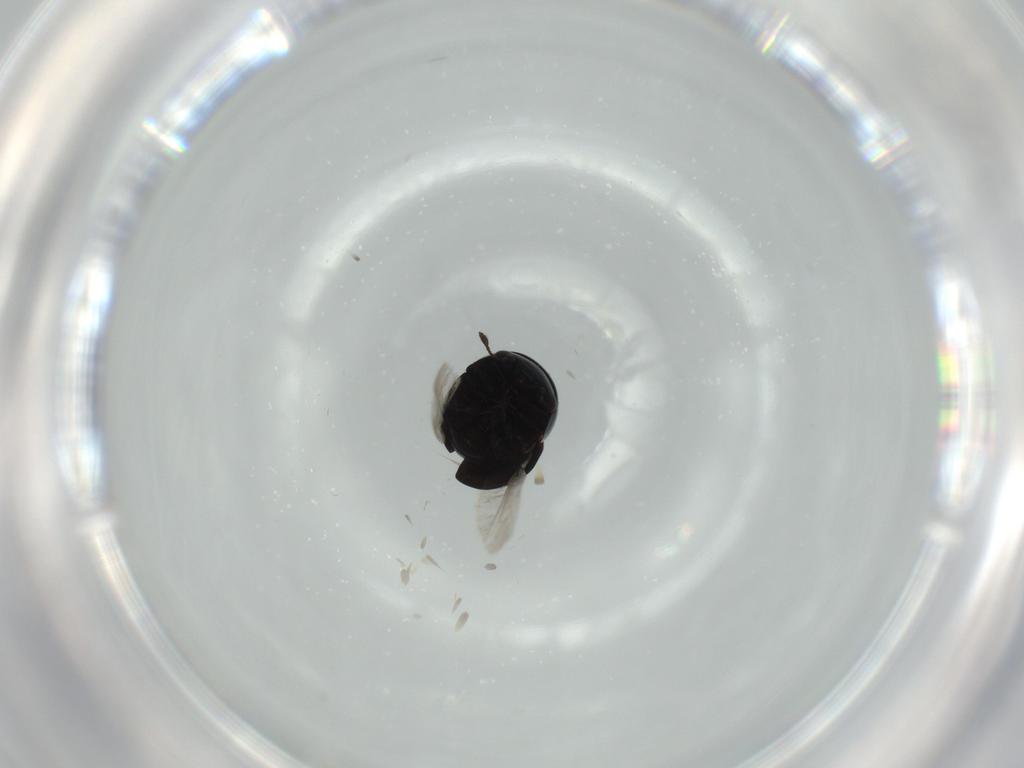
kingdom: Animalia
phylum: Arthropoda
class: Insecta
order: Coleoptera
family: Cybocephalidae
